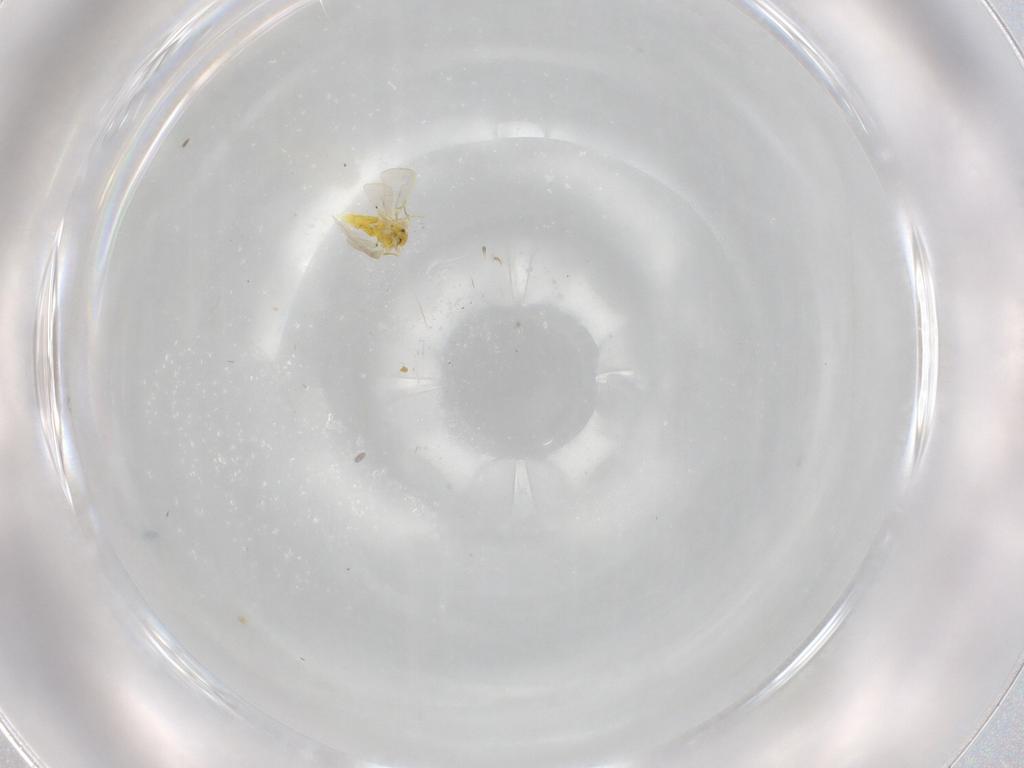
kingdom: Animalia
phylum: Arthropoda
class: Insecta
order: Hemiptera
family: Aleyrodidae
